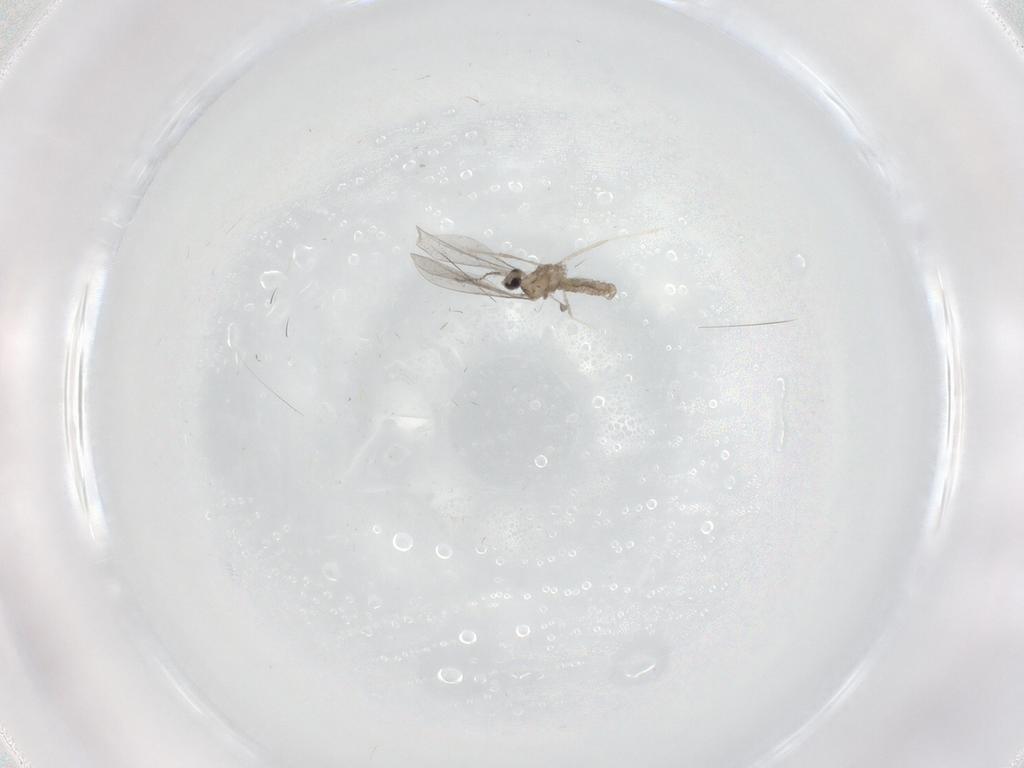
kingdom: Animalia
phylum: Arthropoda
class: Insecta
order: Diptera
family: Cecidomyiidae
